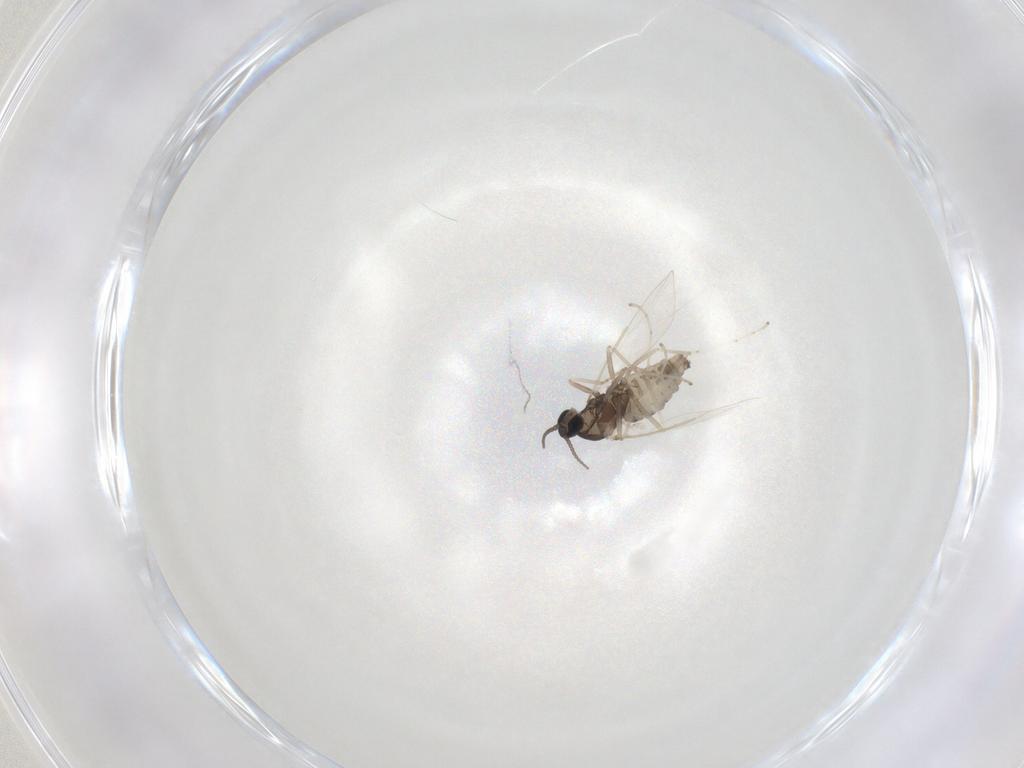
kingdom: Animalia
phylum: Arthropoda
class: Insecta
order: Diptera
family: Cecidomyiidae
